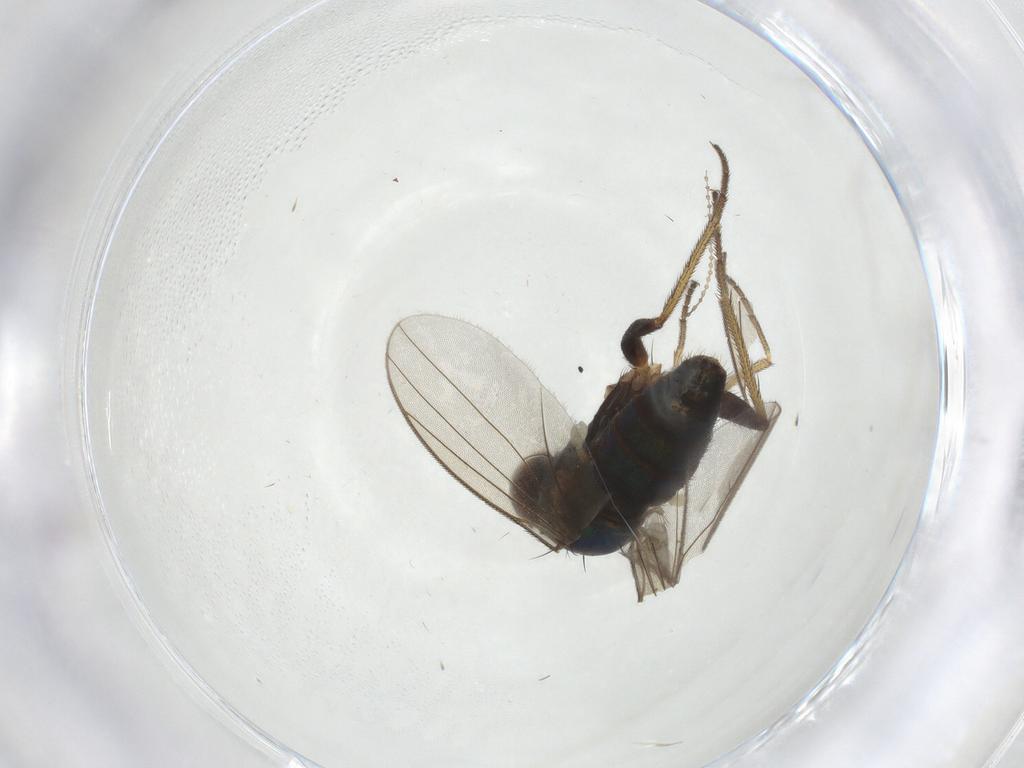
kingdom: Animalia
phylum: Arthropoda
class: Insecta
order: Diptera
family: Cecidomyiidae
